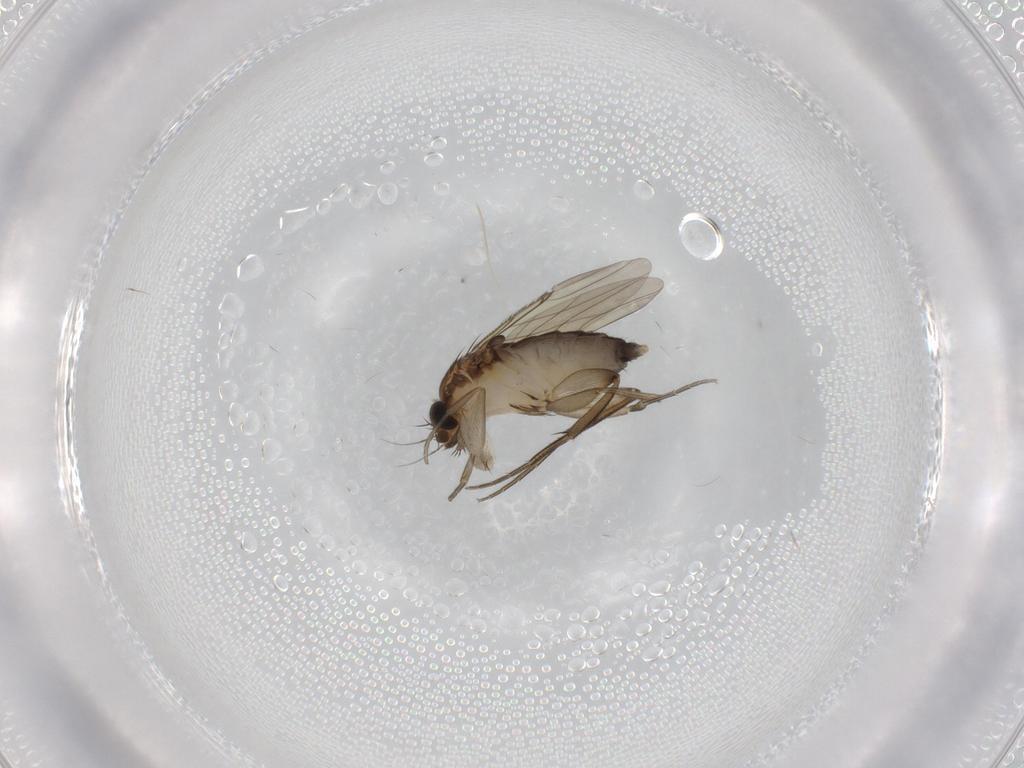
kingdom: Animalia
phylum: Arthropoda
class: Insecta
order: Diptera
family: Phoridae
